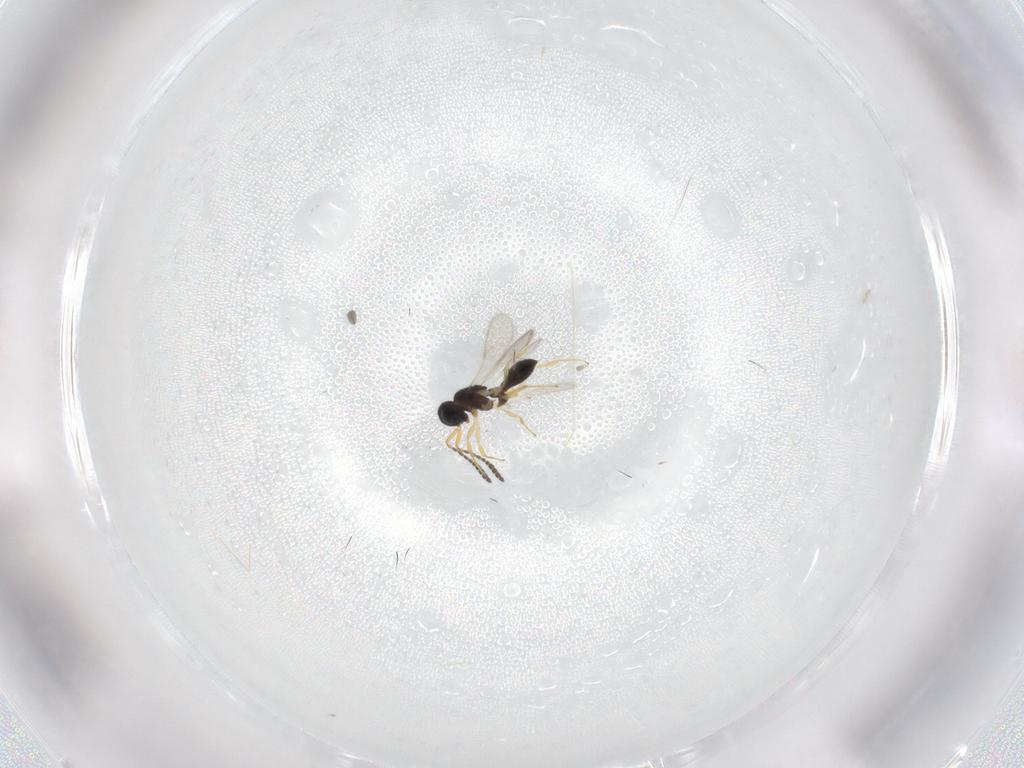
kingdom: Animalia
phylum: Arthropoda
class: Insecta
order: Hymenoptera
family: Scelionidae
